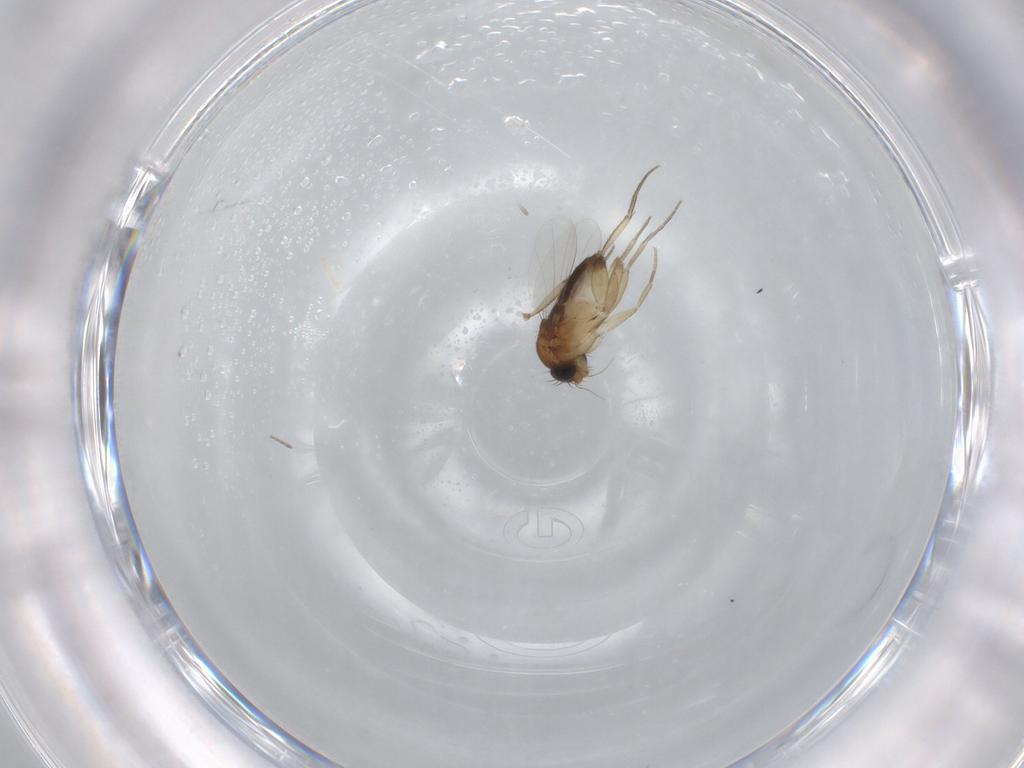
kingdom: Animalia
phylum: Arthropoda
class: Insecta
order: Diptera
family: Phoridae
